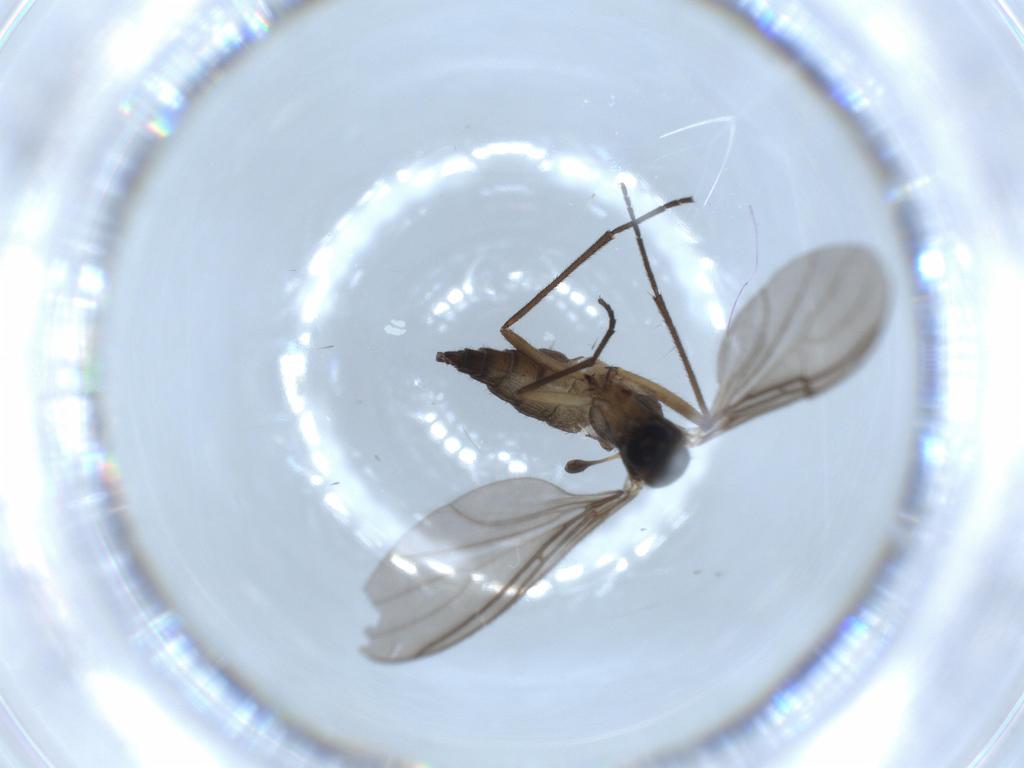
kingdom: Animalia
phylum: Arthropoda
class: Insecta
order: Diptera
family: Sciaridae
